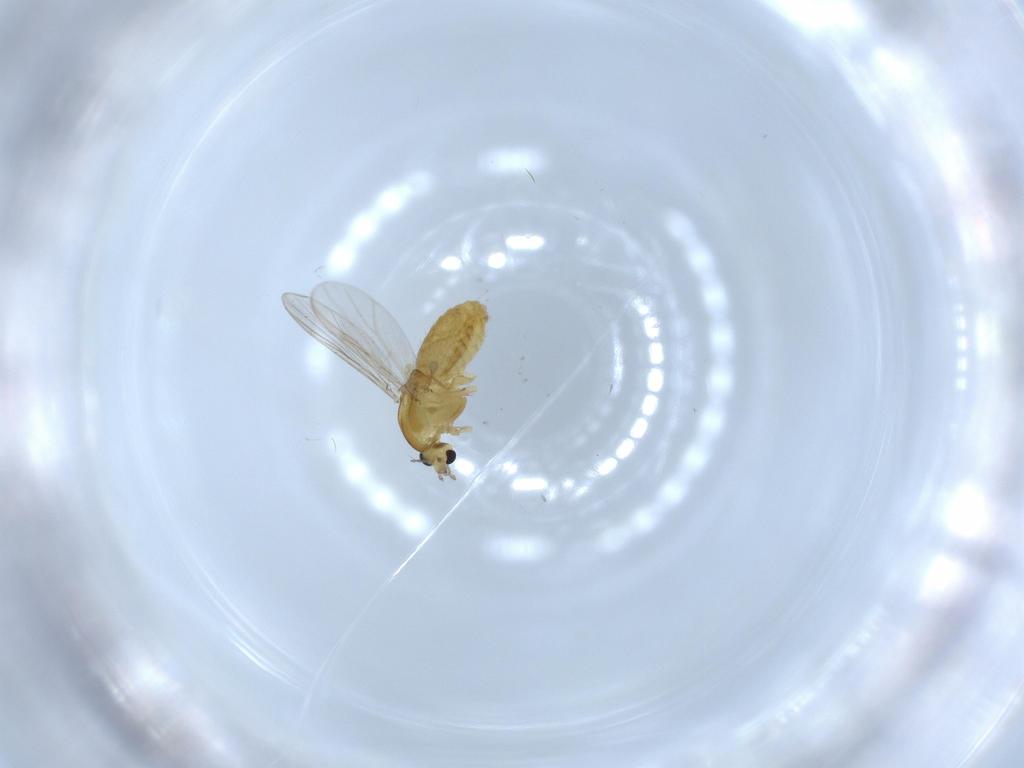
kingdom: Animalia
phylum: Arthropoda
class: Insecta
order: Diptera
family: Chironomidae
